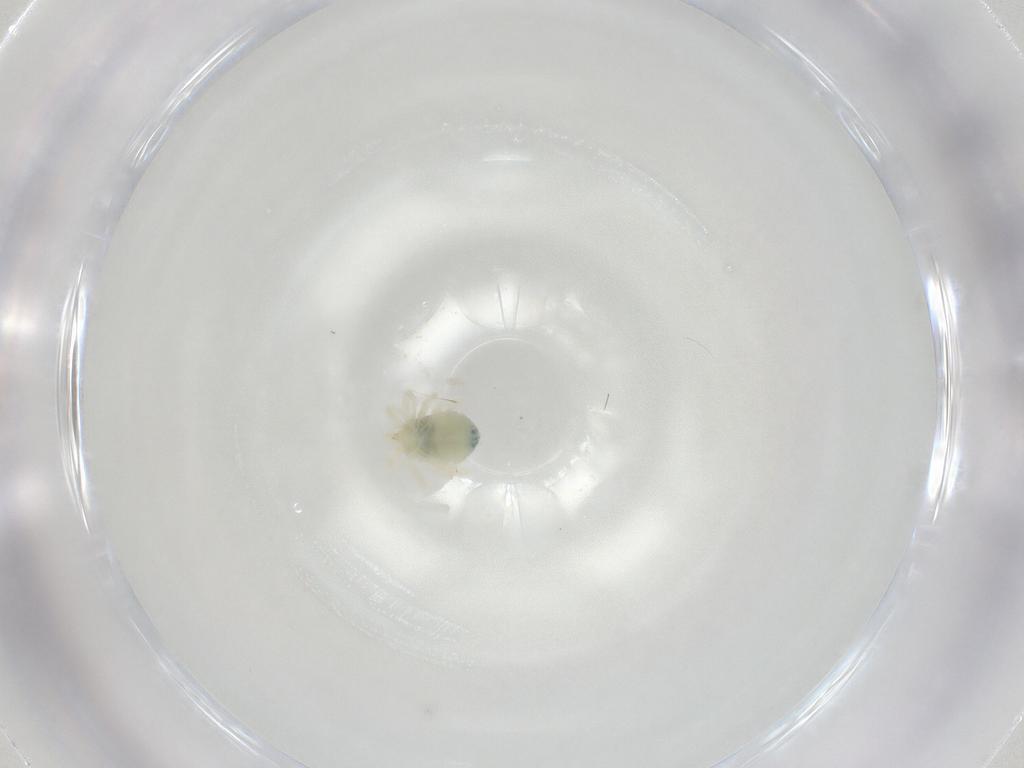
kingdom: Animalia
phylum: Arthropoda
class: Arachnida
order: Trombidiformes
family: Anystidae
